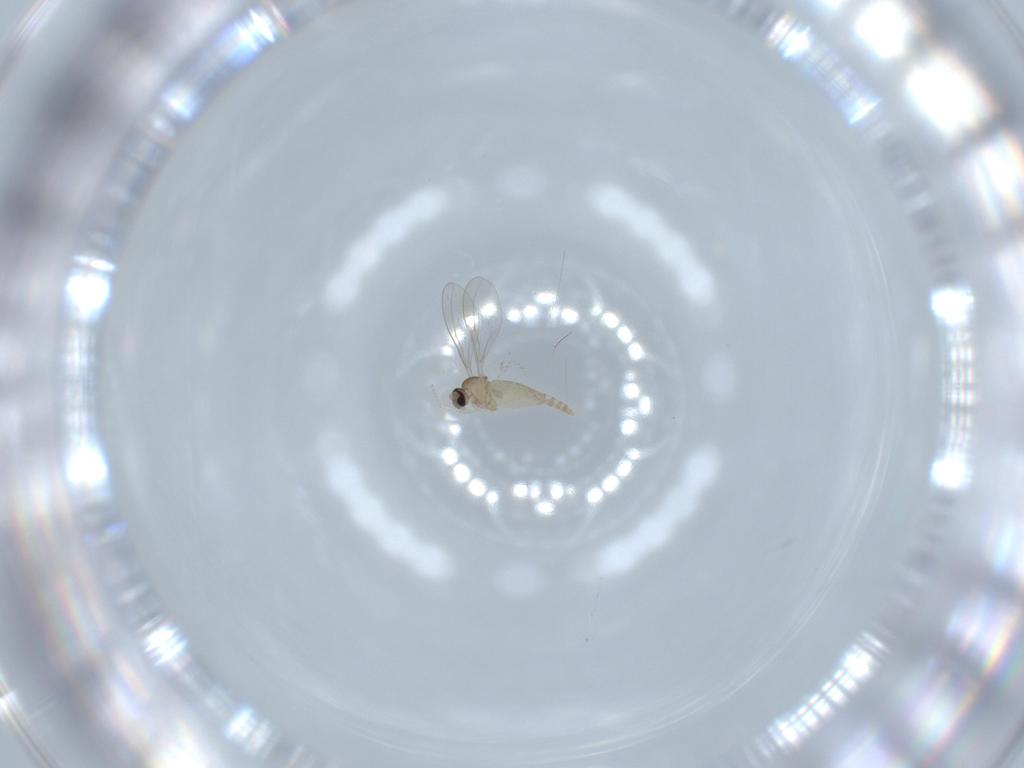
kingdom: Animalia
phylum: Arthropoda
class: Insecta
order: Diptera
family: Cecidomyiidae
